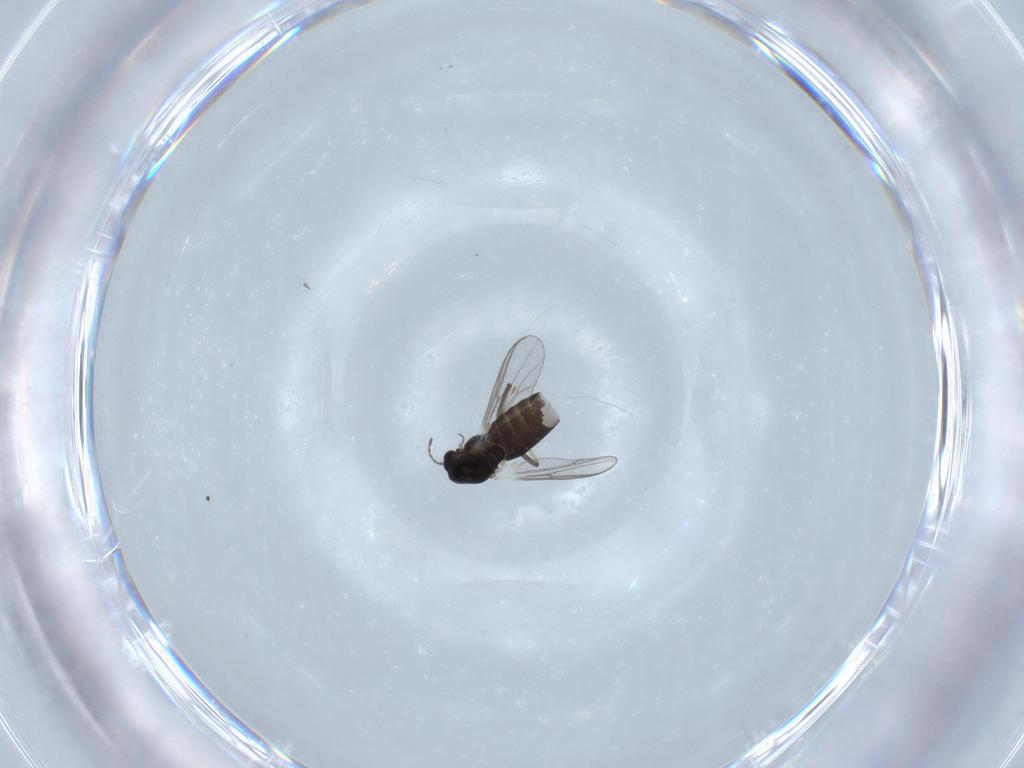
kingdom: Animalia
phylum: Arthropoda
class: Insecta
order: Diptera
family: Chironomidae
